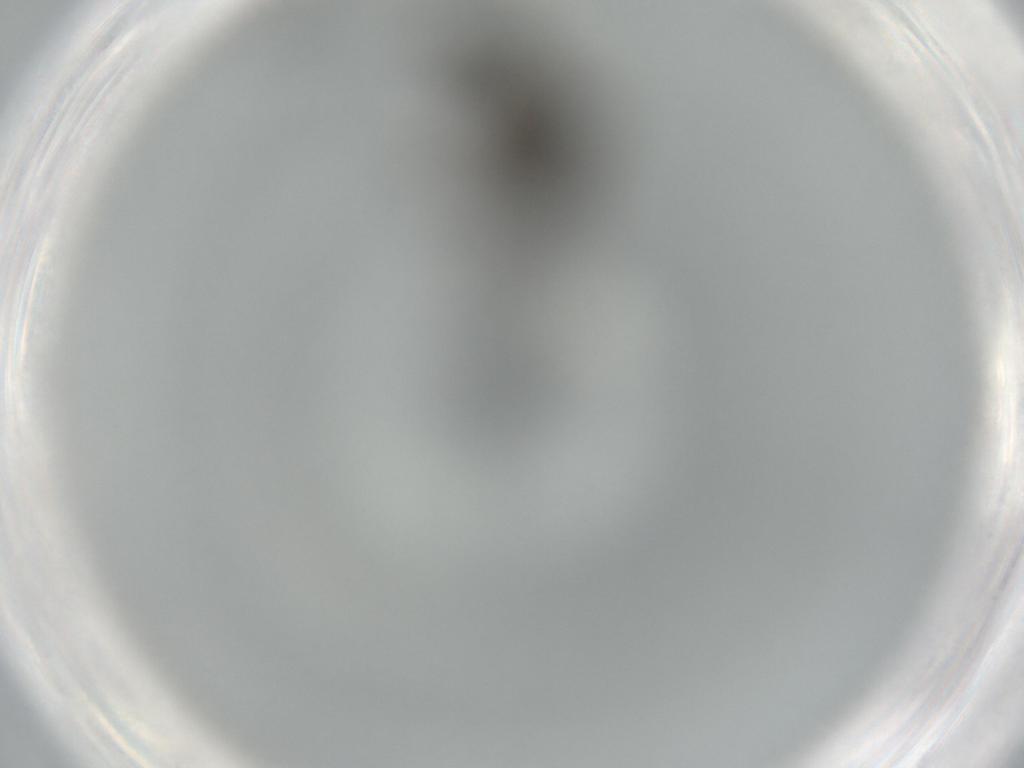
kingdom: Animalia
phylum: Arthropoda
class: Insecta
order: Diptera
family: Sciaridae
